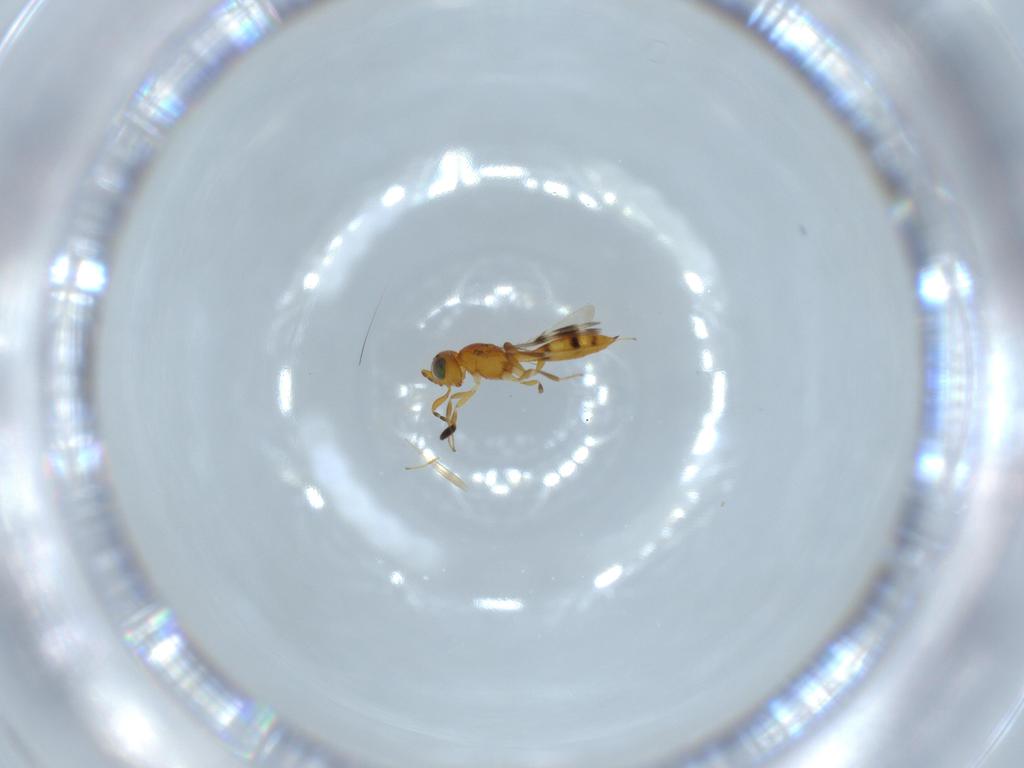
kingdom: Animalia
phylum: Arthropoda
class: Insecta
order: Hymenoptera
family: Scelionidae
